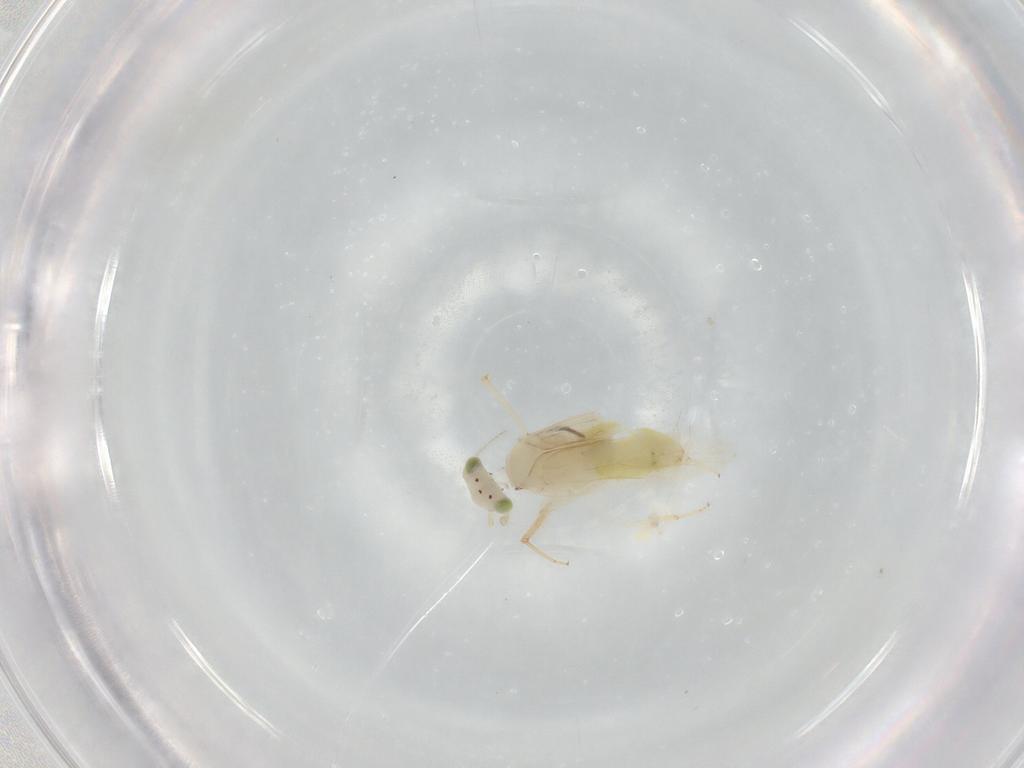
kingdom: Animalia
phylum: Arthropoda
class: Insecta
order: Psocodea
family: Lepidopsocidae
